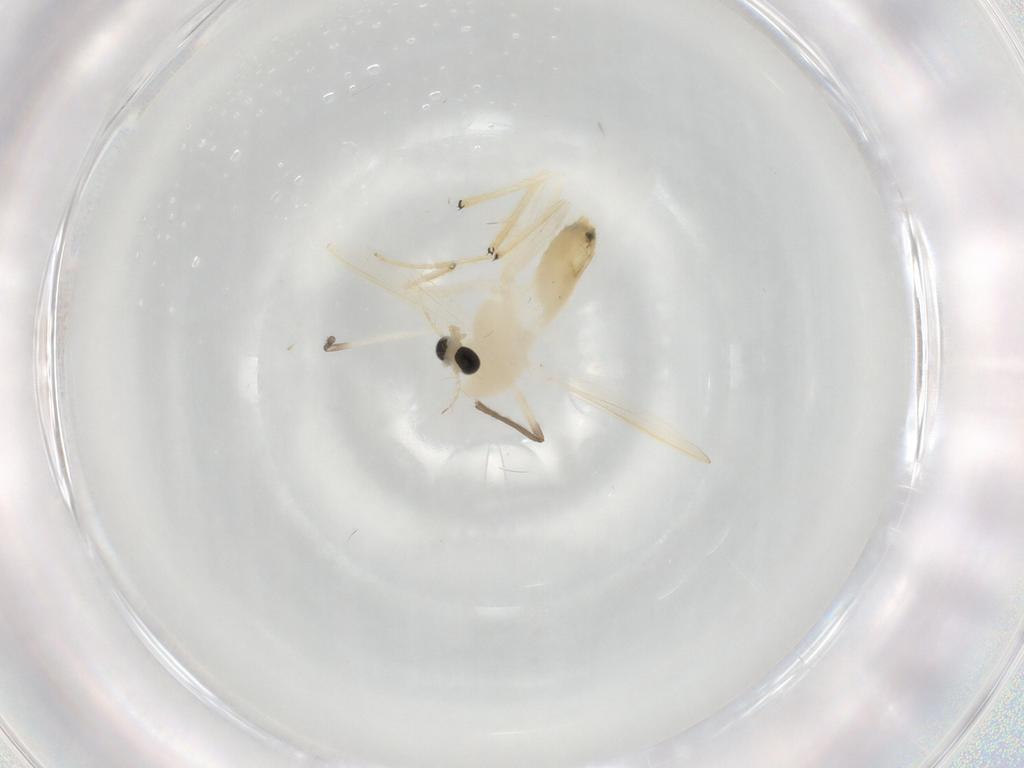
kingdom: Animalia
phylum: Arthropoda
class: Insecta
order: Diptera
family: Chironomidae
